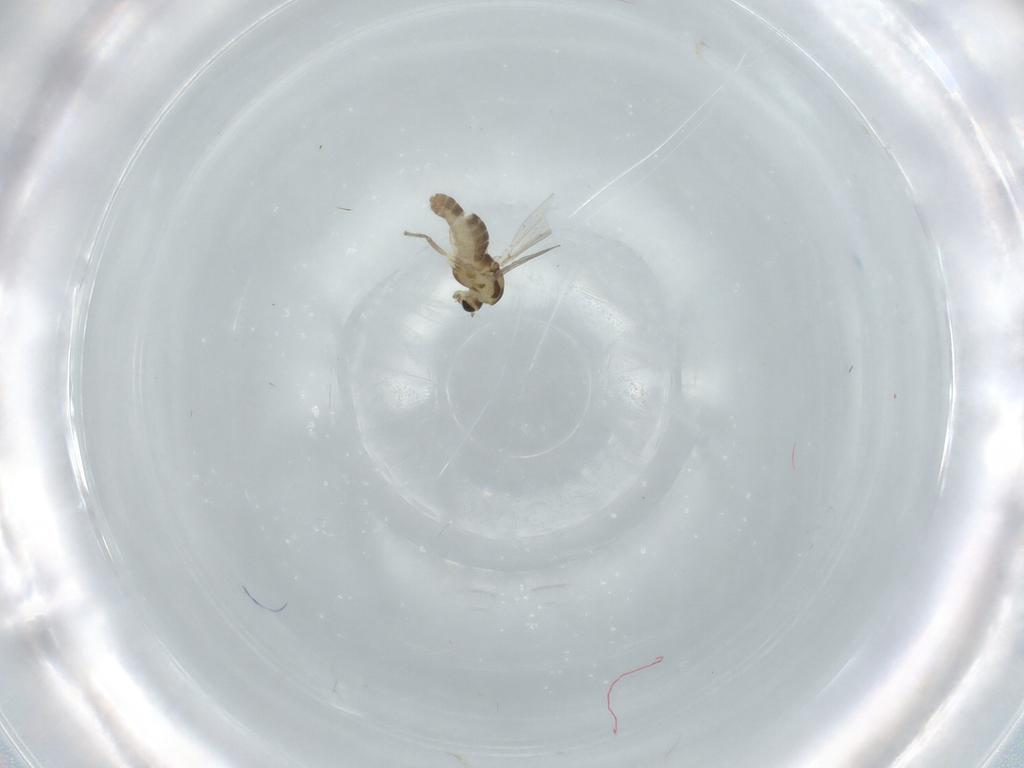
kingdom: Animalia
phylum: Arthropoda
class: Insecta
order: Diptera
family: Chironomidae
